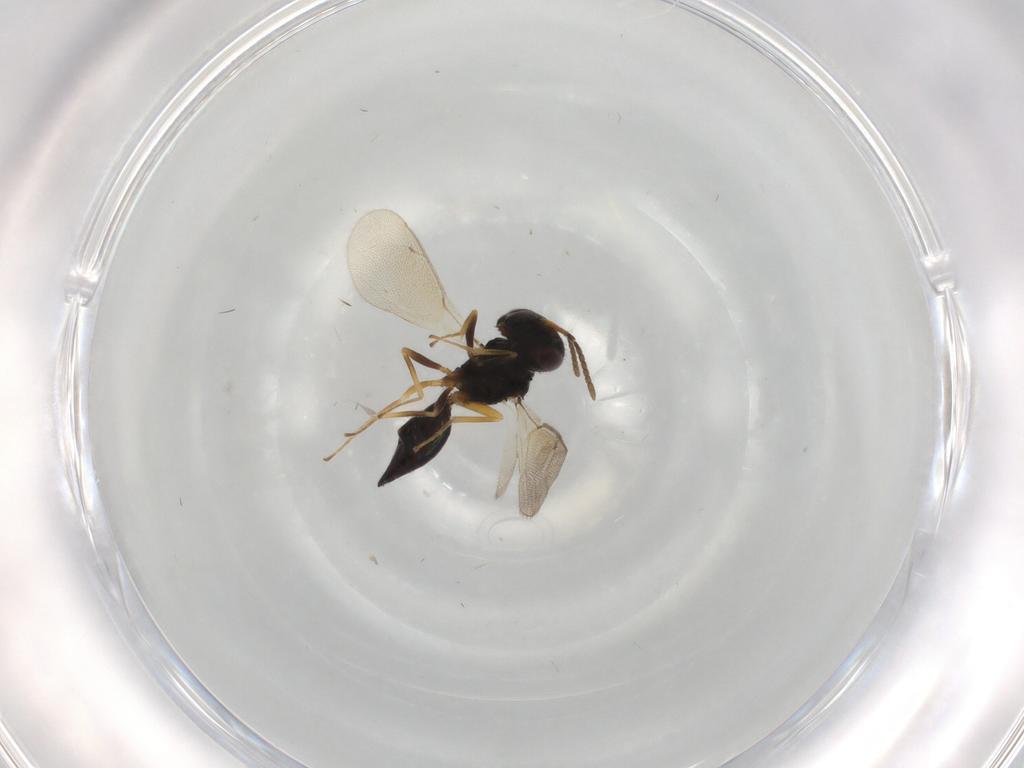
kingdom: Animalia
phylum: Arthropoda
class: Insecta
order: Hymenoptera
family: Pteromalidae
